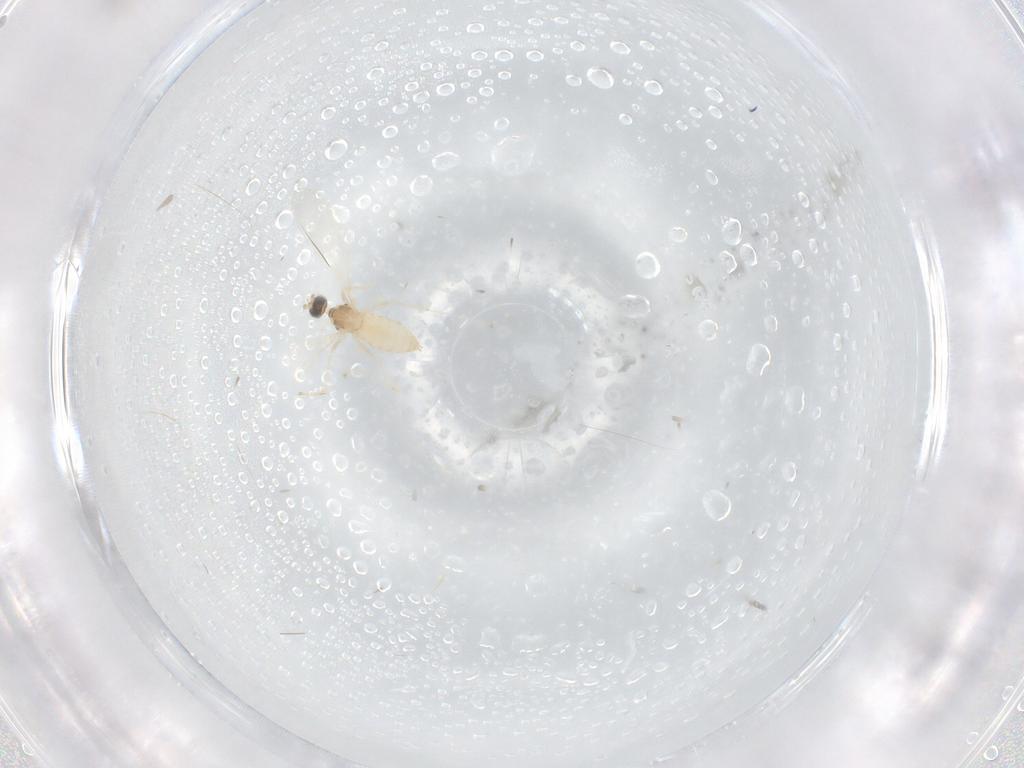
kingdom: Animalia
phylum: Arthropoda
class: Insecta
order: Diptera
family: Cecidomyiidae
